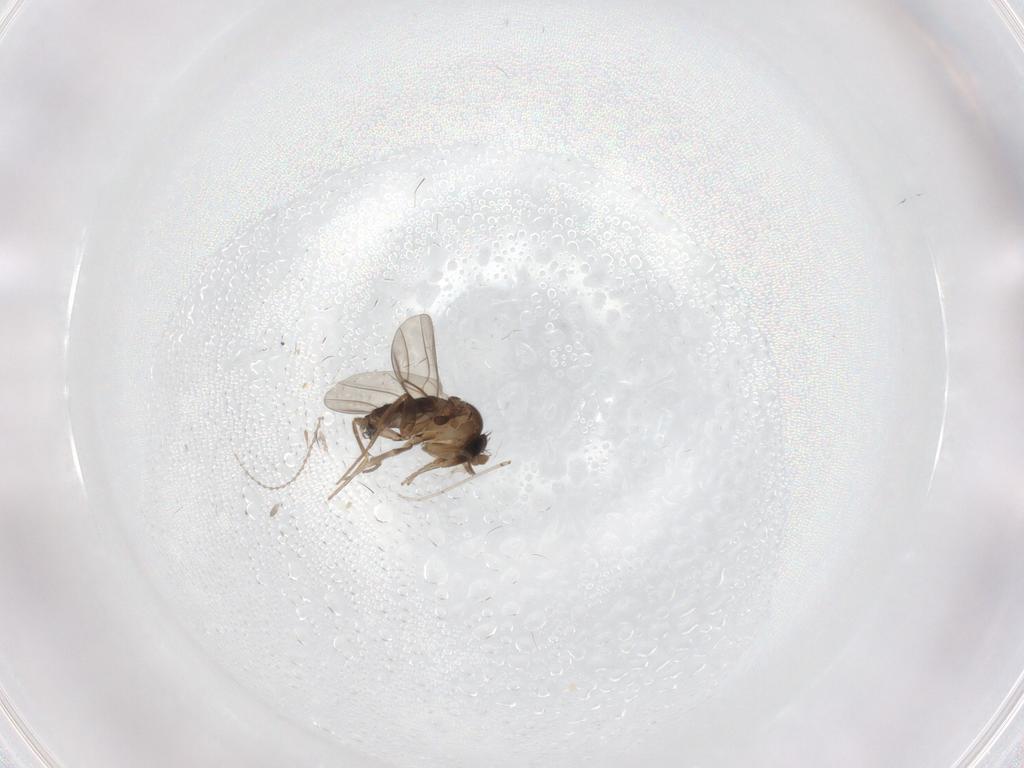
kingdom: Animalia
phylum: Arthropoda
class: Insecta
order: Diptera
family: Phoridae
